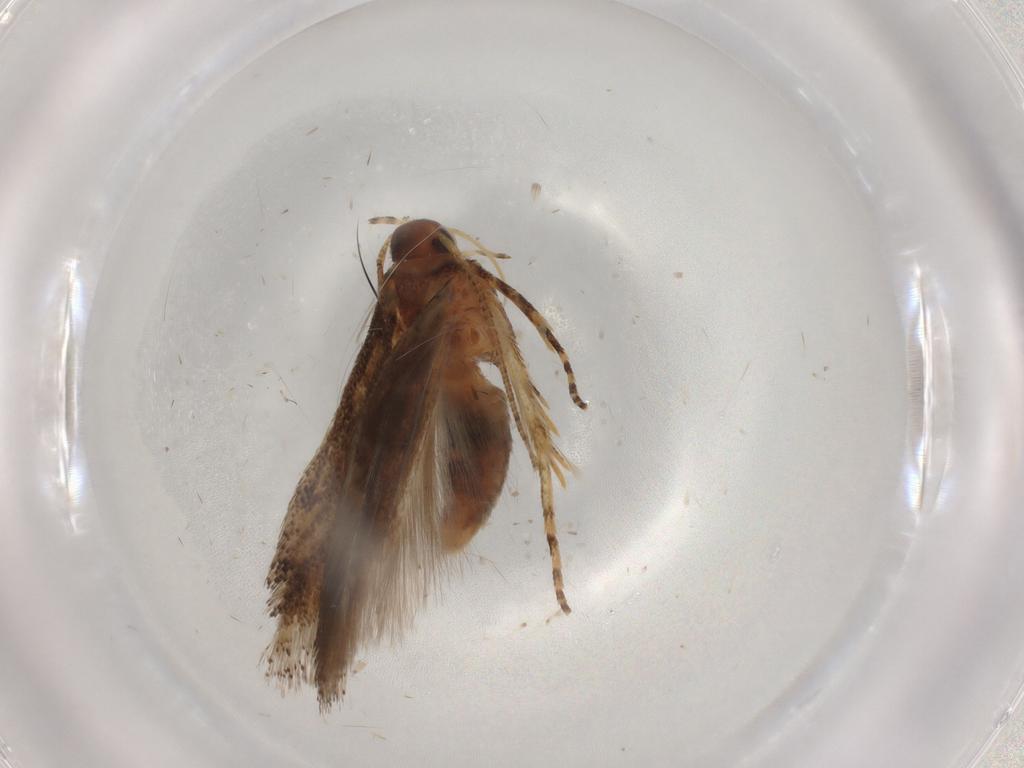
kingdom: Animalia
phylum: Arthropoda
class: Insecta
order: Lepidoptera
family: Gelechiidae
